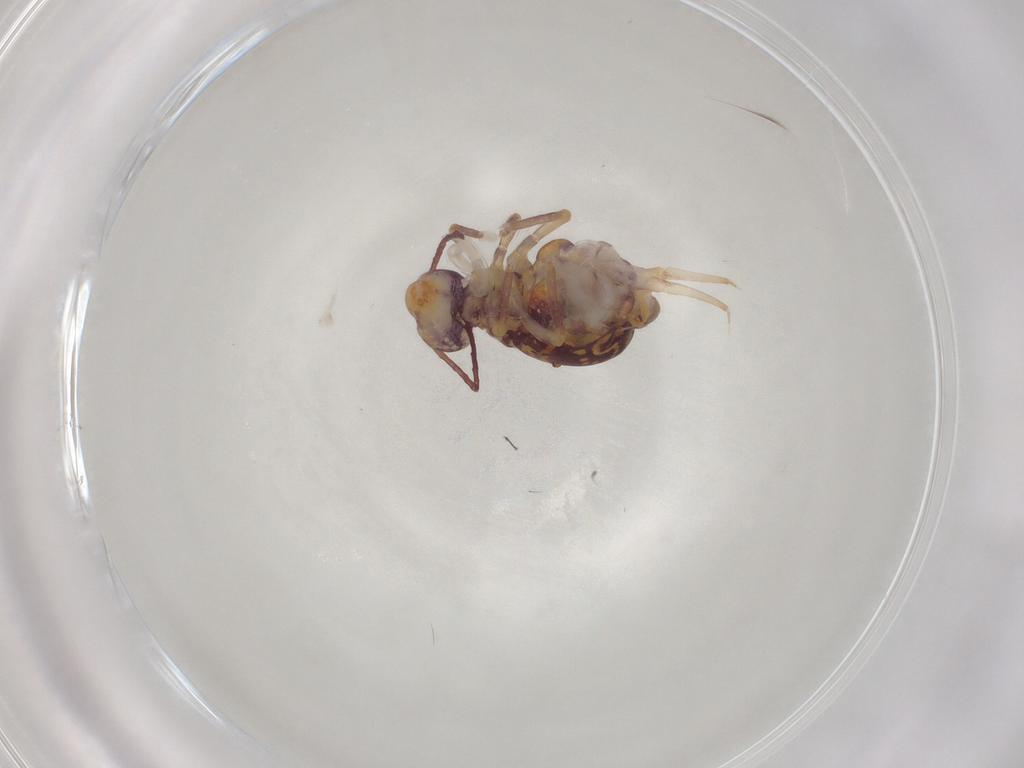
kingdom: Animalia
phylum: Arthropoda
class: Collembola
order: Symphypleona
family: Dicyrtomidae
